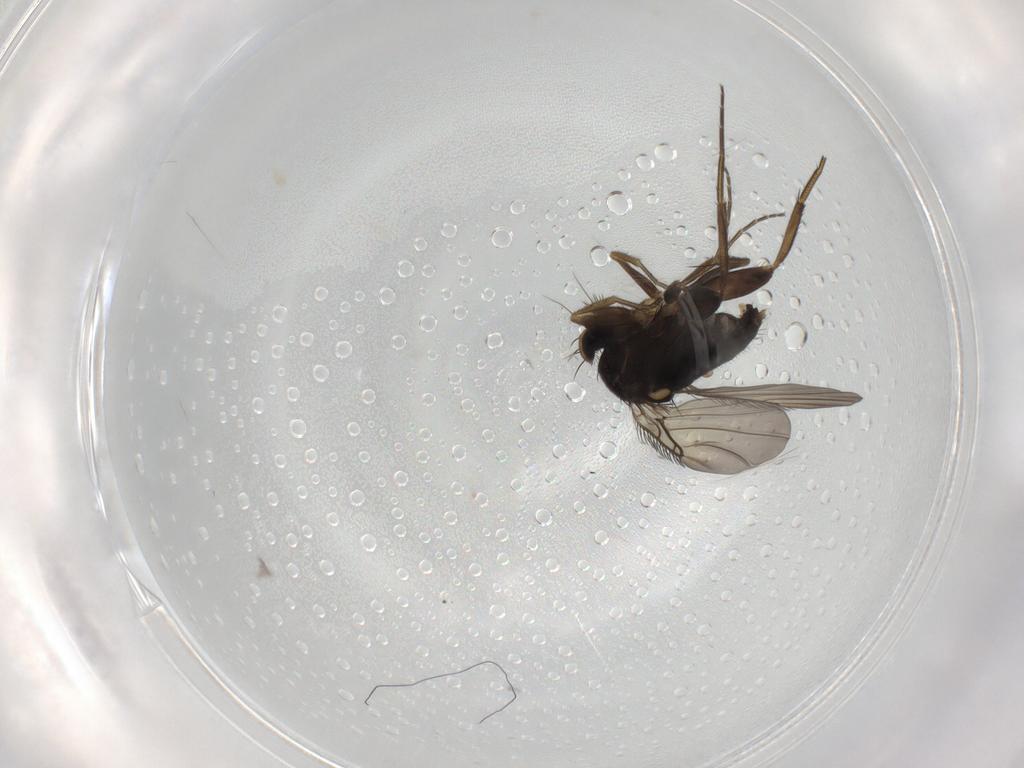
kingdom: Animalia
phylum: Arthropoda
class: Insecta
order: Diptera
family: Phoridae
